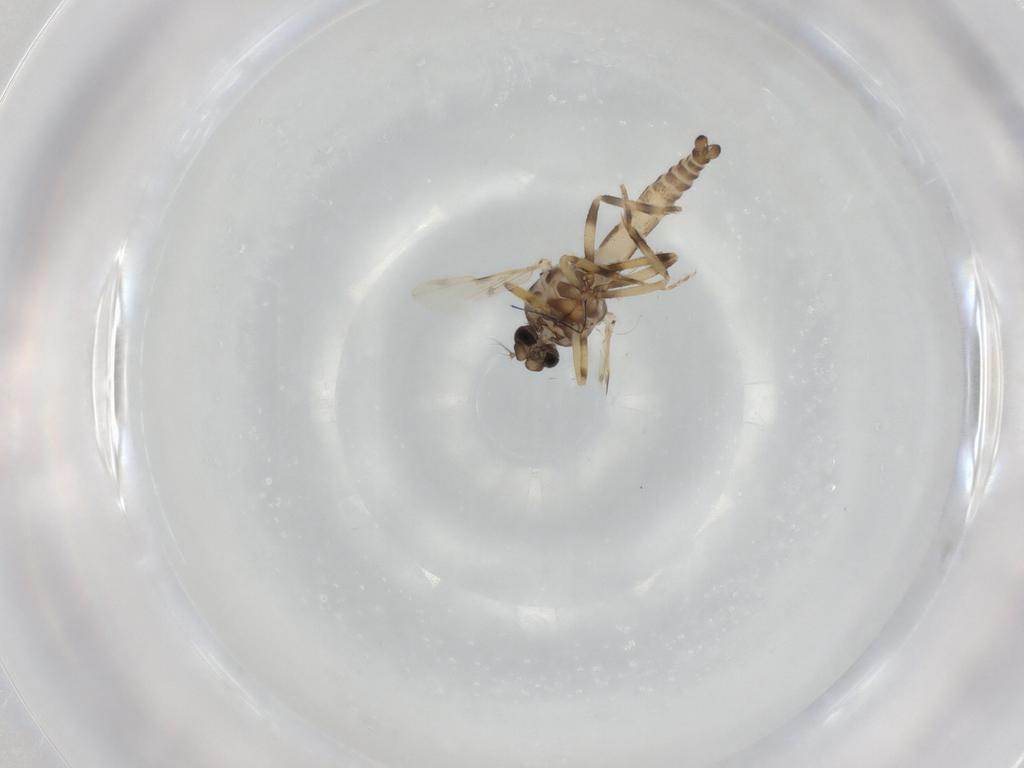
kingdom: Animalia
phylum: Arthropoda
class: Insecta
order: Diptera
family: Ceratopogonidae
